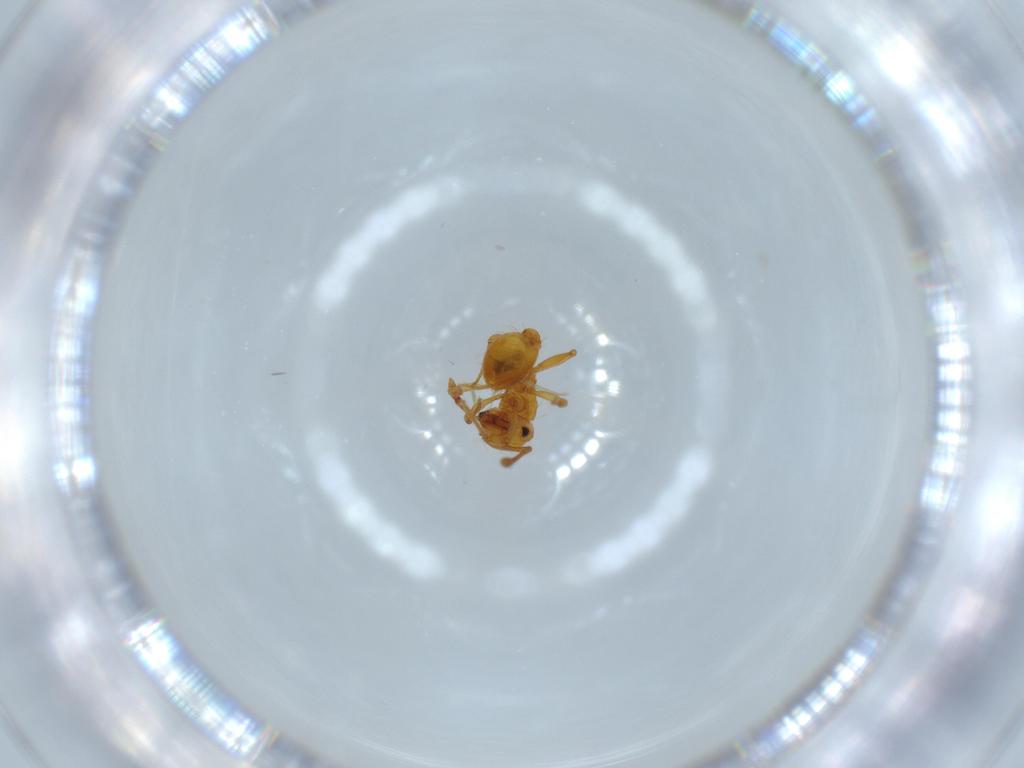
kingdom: Animalia
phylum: Arthropoda
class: Insecta
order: Hymenoptera
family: Formicidae
